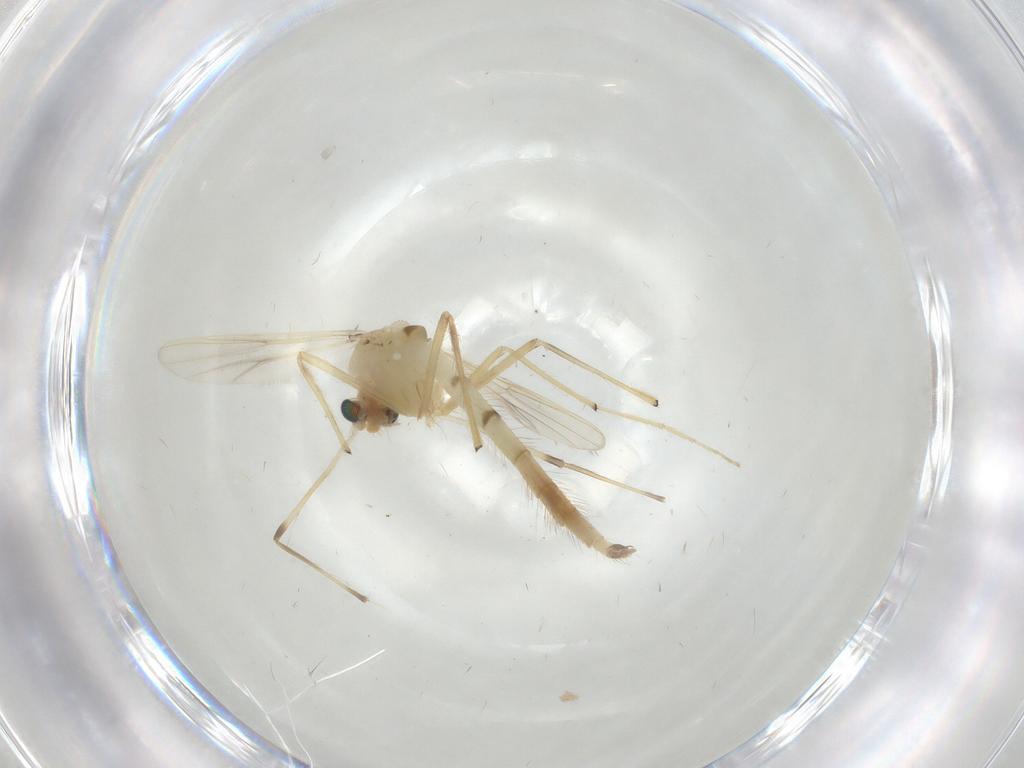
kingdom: Animalia
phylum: Arthropoda
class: Insecta
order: Diptera
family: Chironomidae
